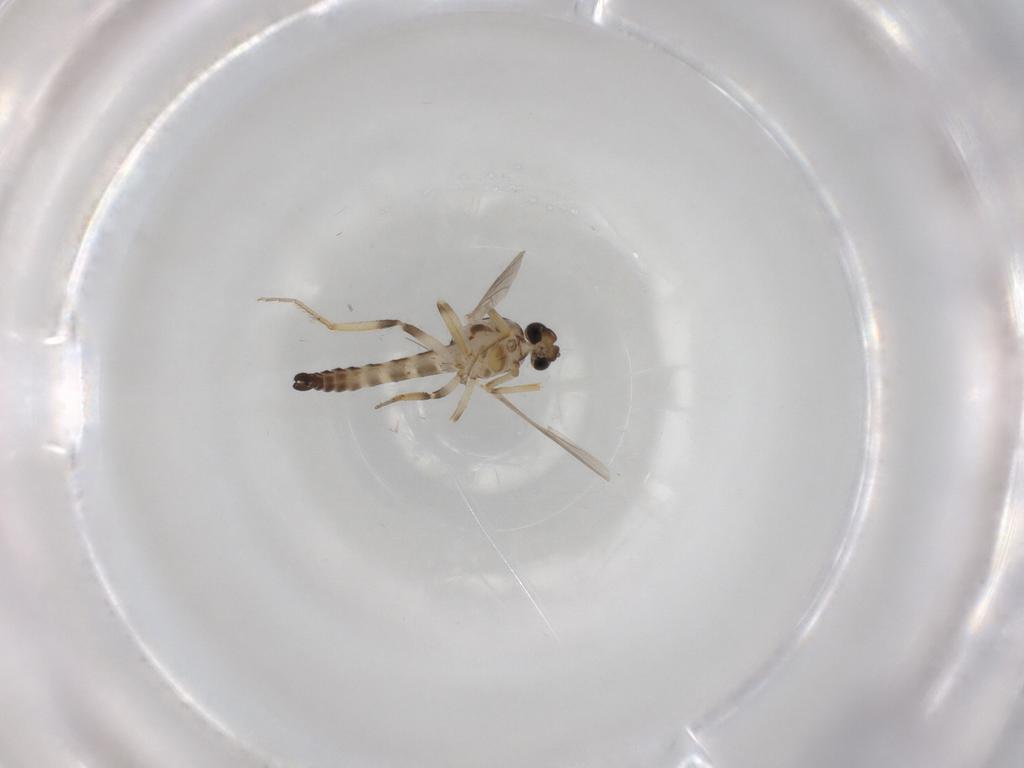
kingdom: Animalia
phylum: Arthropoda
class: Insecta
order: Diptera
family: Ceratopogonidae
